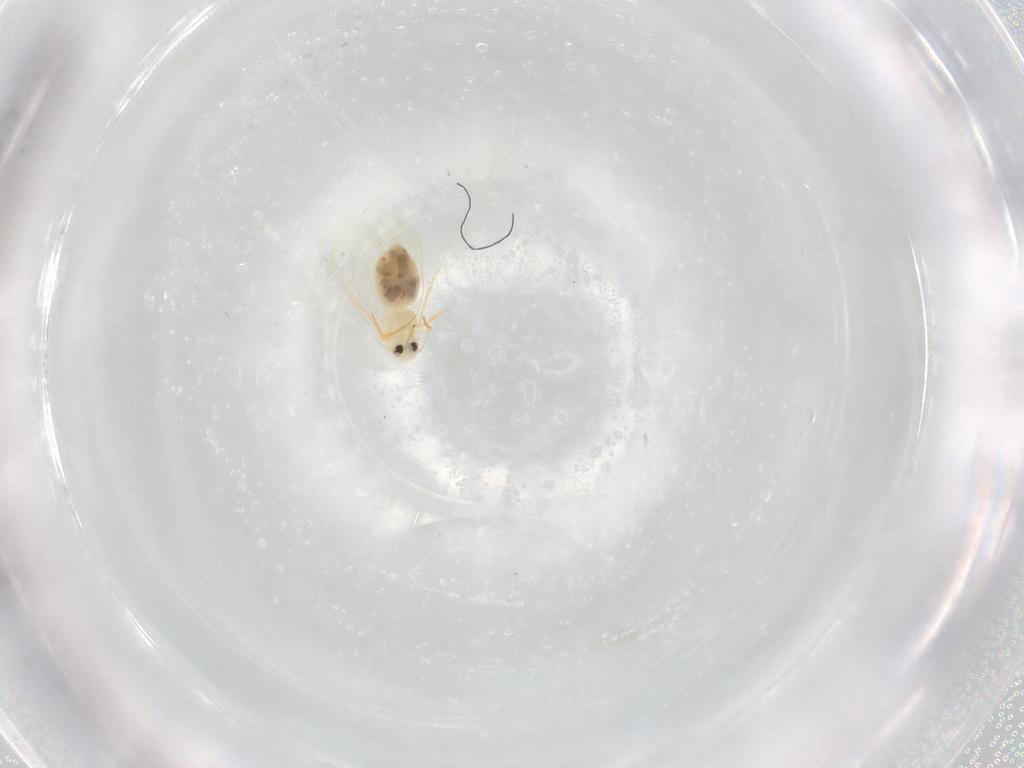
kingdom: Animalia
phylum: Arthropoda
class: Insecta
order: Hemiptera
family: Aleyrodidae
